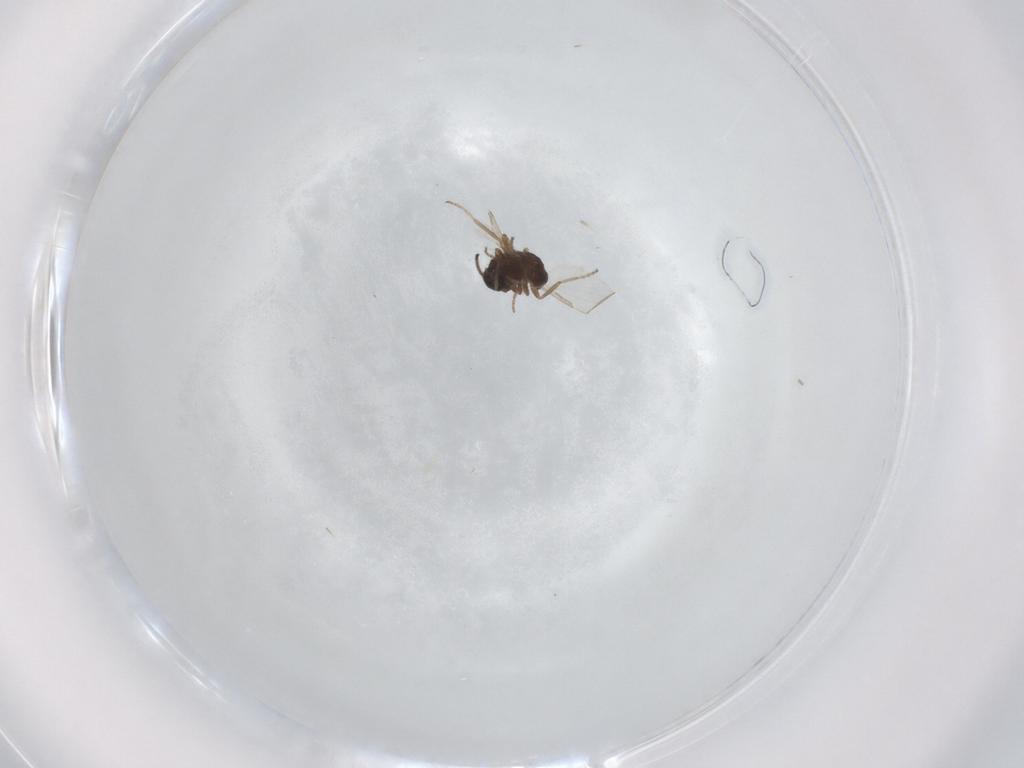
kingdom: Animalia
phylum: Arthropoda
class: Insecta
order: Diptera
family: Ceratopogonidae
